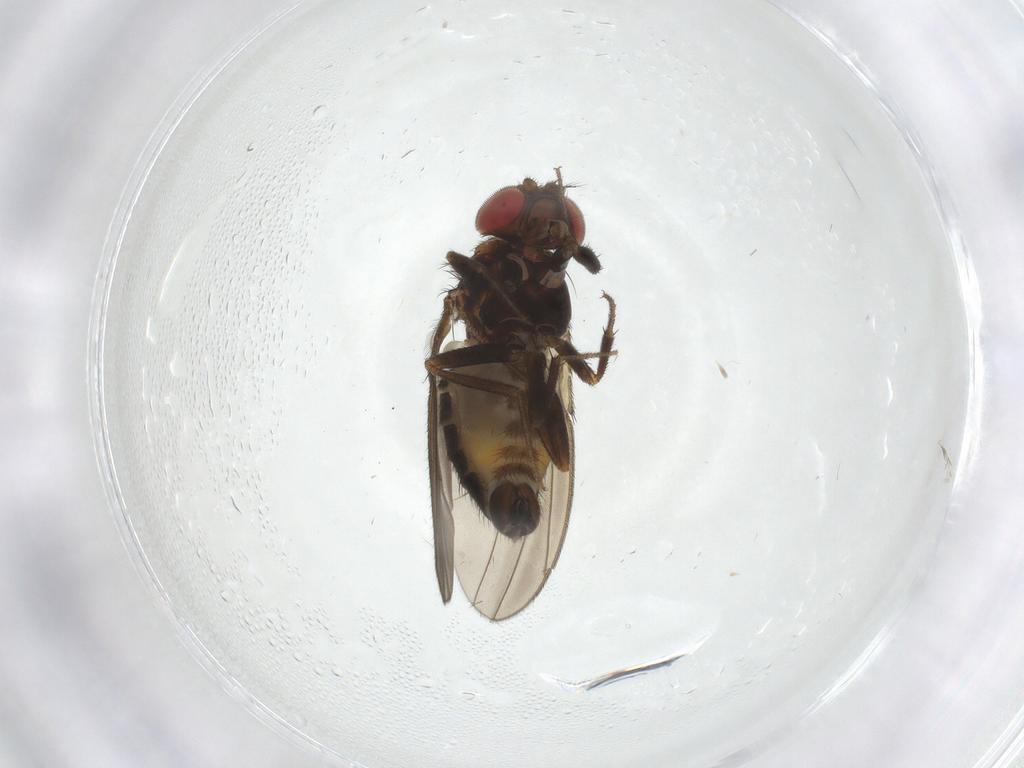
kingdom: Animalia
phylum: Arthropoda
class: Insecta
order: Diptera
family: Drosophilidae
